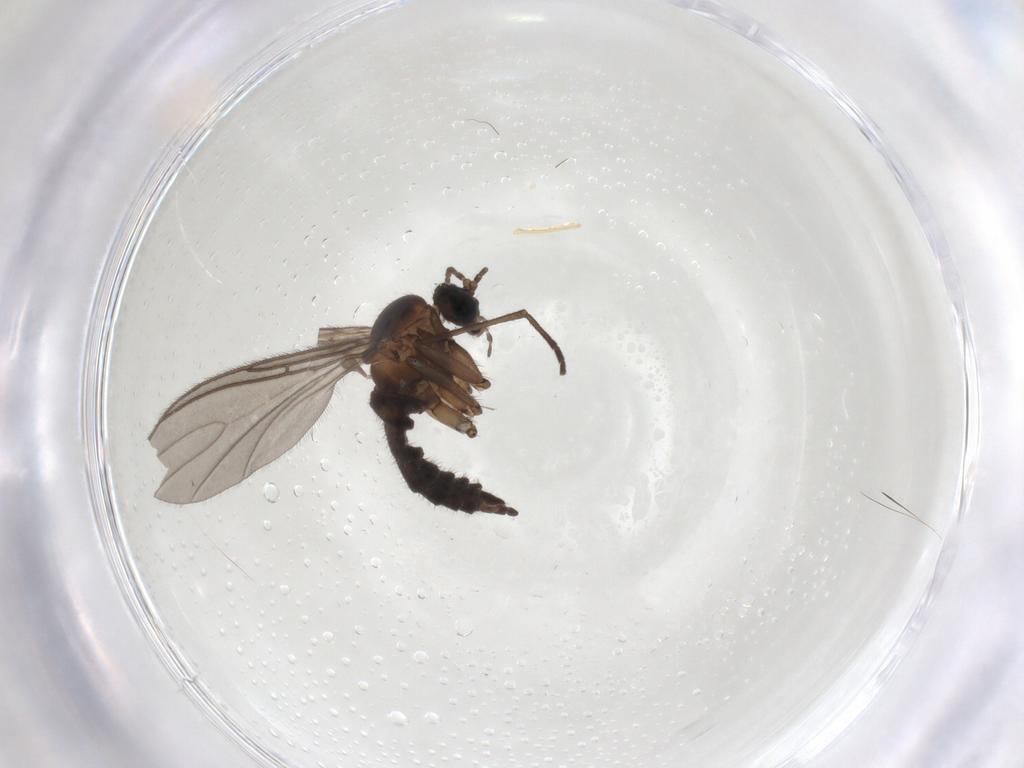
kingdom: Animalia
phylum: Arthropoda
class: Insecta
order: Diptera
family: Sciaridae
